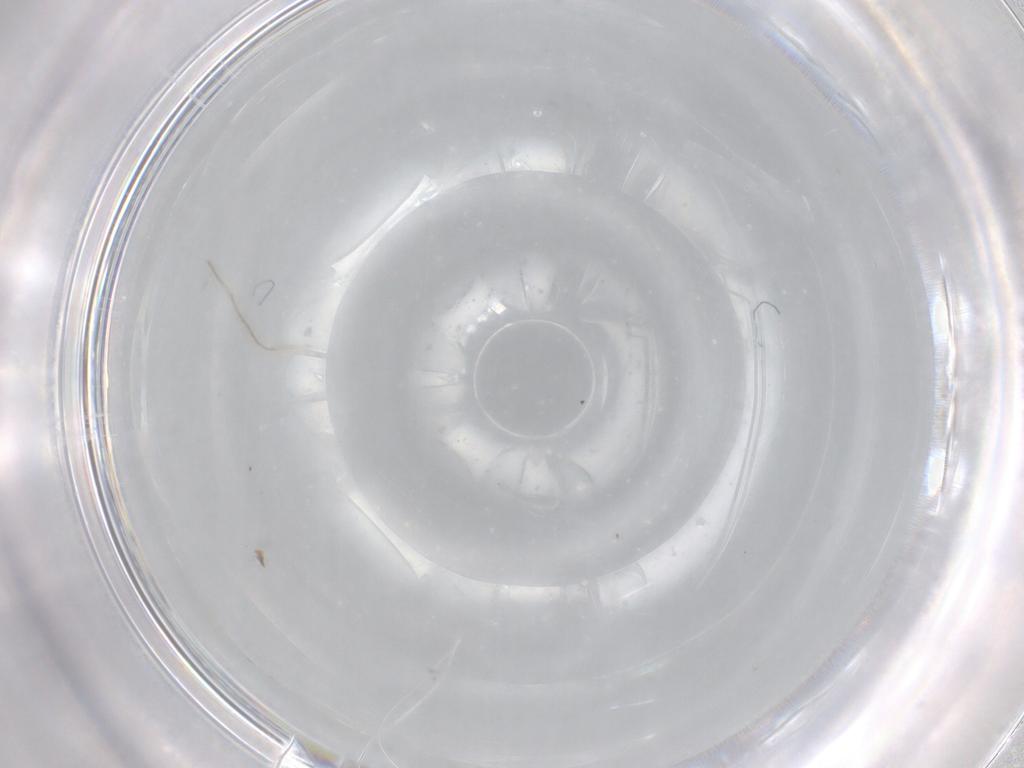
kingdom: Animalia
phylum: Arthropoda
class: Insecta
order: Diptera
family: Chironomidae
